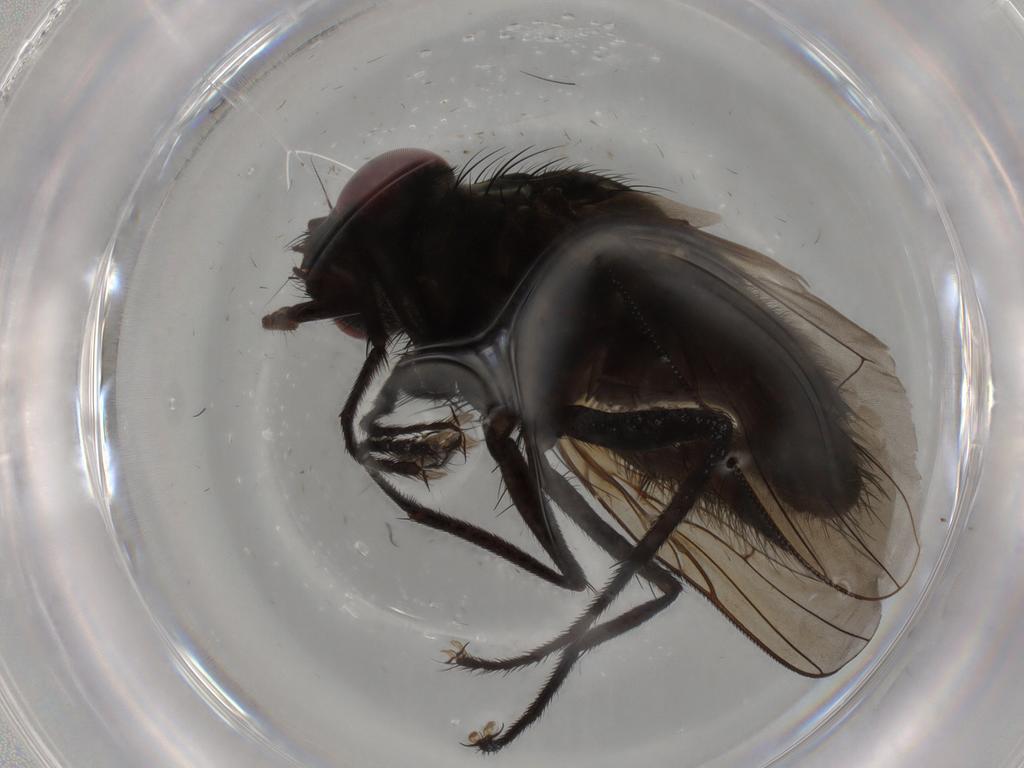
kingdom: Animalia
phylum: Arthropoda
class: Insecta
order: Diptera
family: Muscidae
